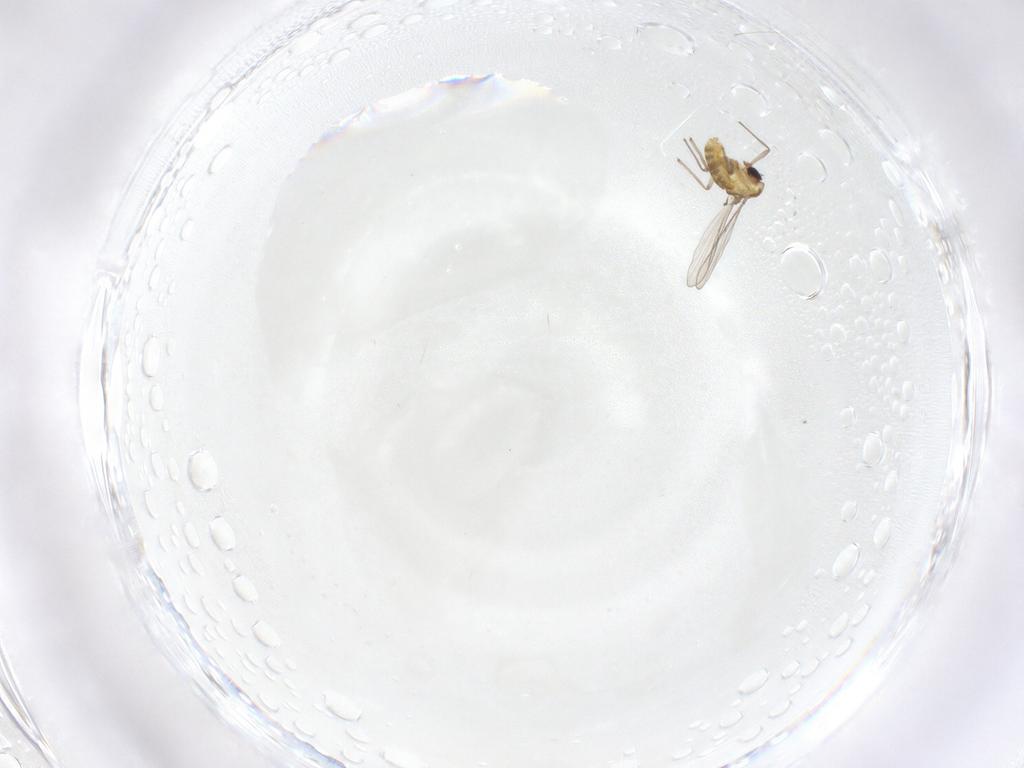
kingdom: Animalia
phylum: Arthropoda
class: Insecta
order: Diptera
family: Chironomidae
